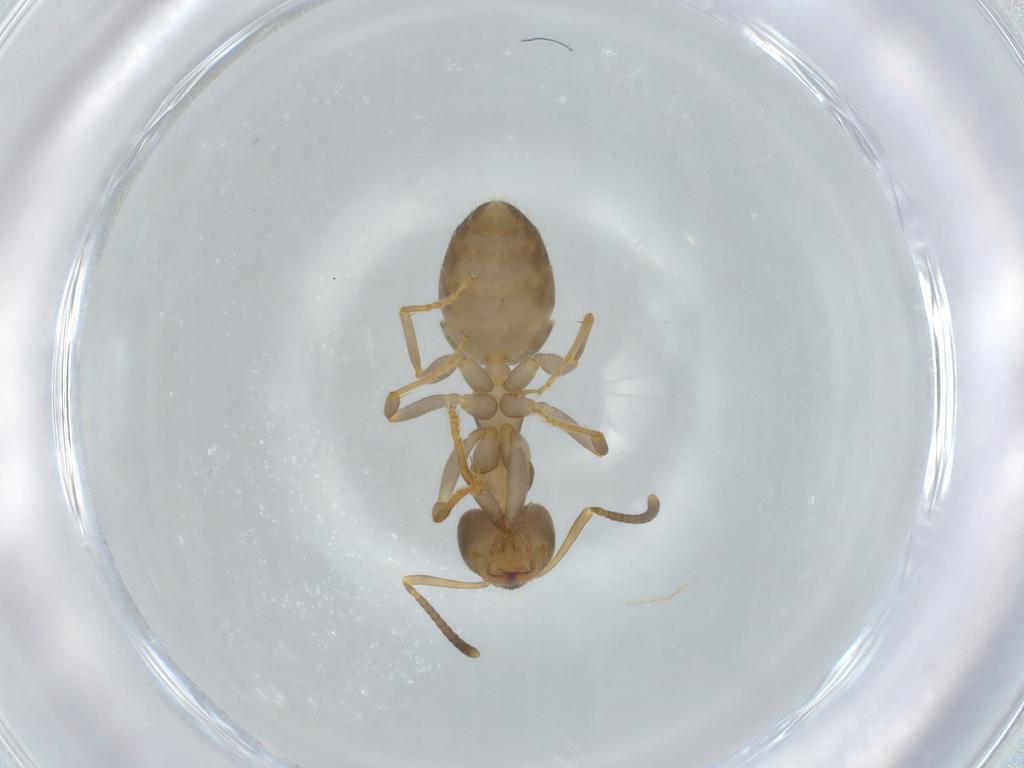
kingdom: Animalia
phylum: Arthropoda
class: Insecta
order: Hymenoptera
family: Formicidae
